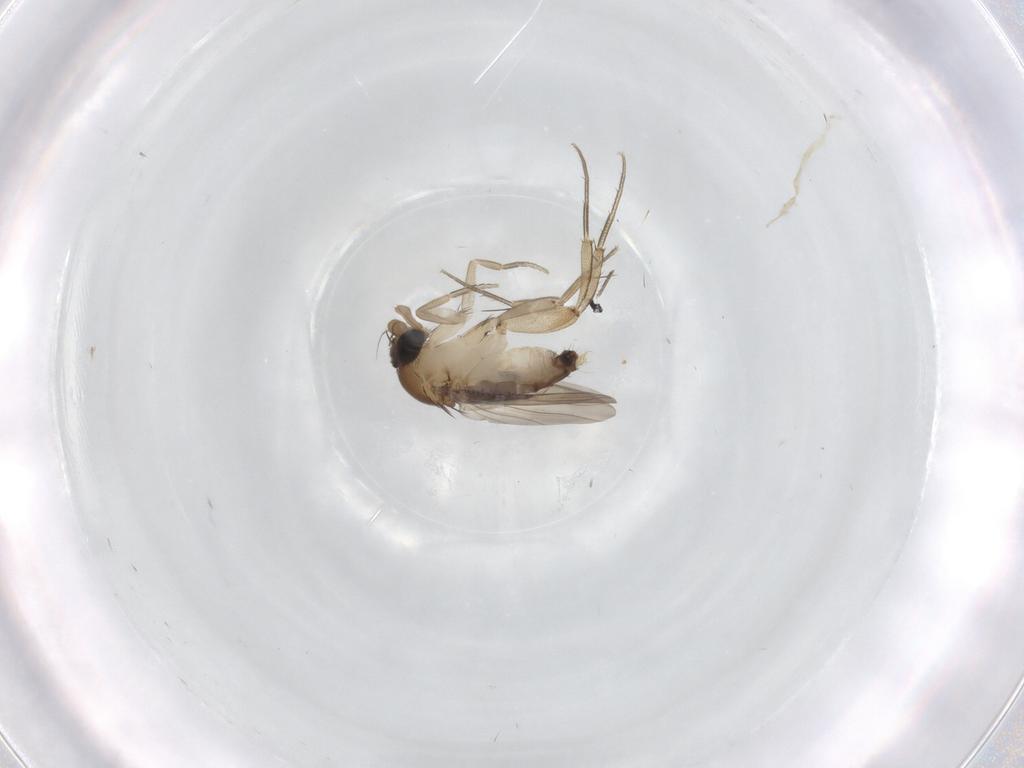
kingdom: Animalia
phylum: Arthropoda
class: Insecta
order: Diptera
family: Phoridae
